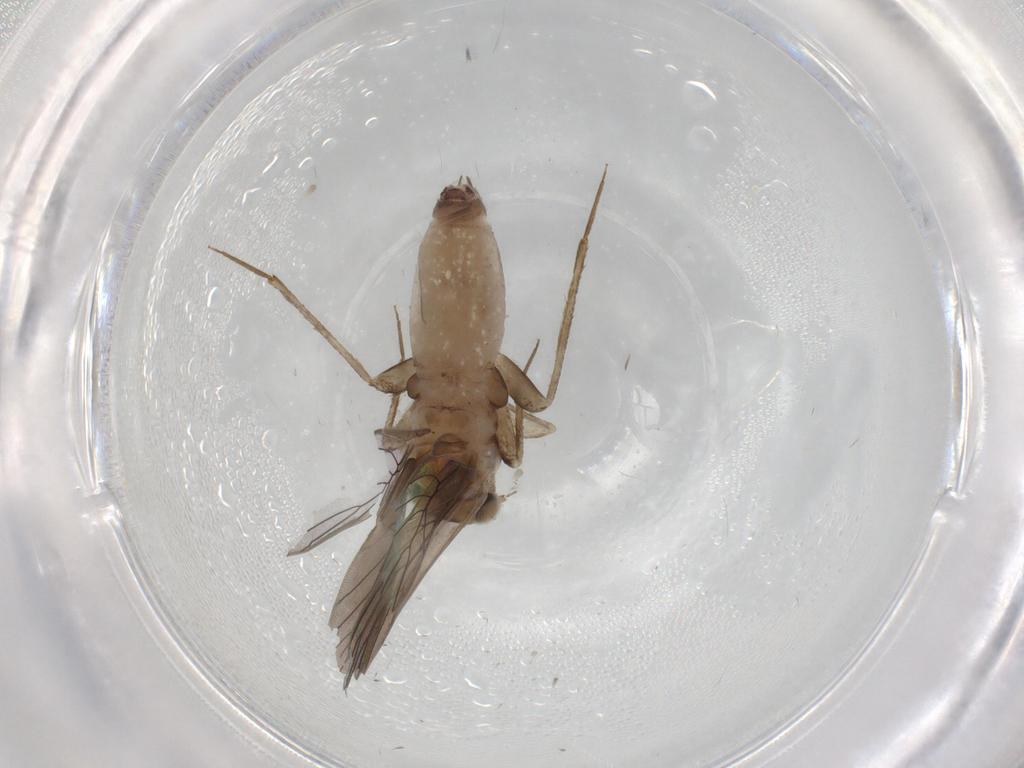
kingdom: Animalia
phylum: Arthropoda
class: Insecta
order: Psocodea
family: Lepidopsocidae
